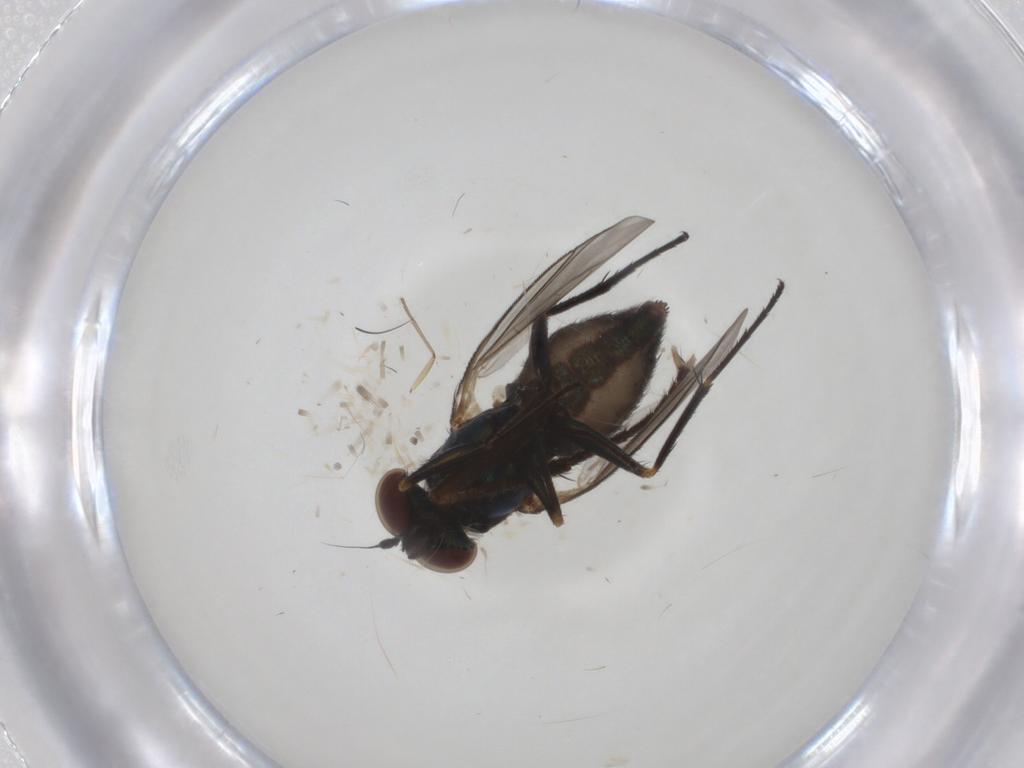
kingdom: Animalia
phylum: Arthropoda
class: Insecta
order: Diptera
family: Dolichopodidae
